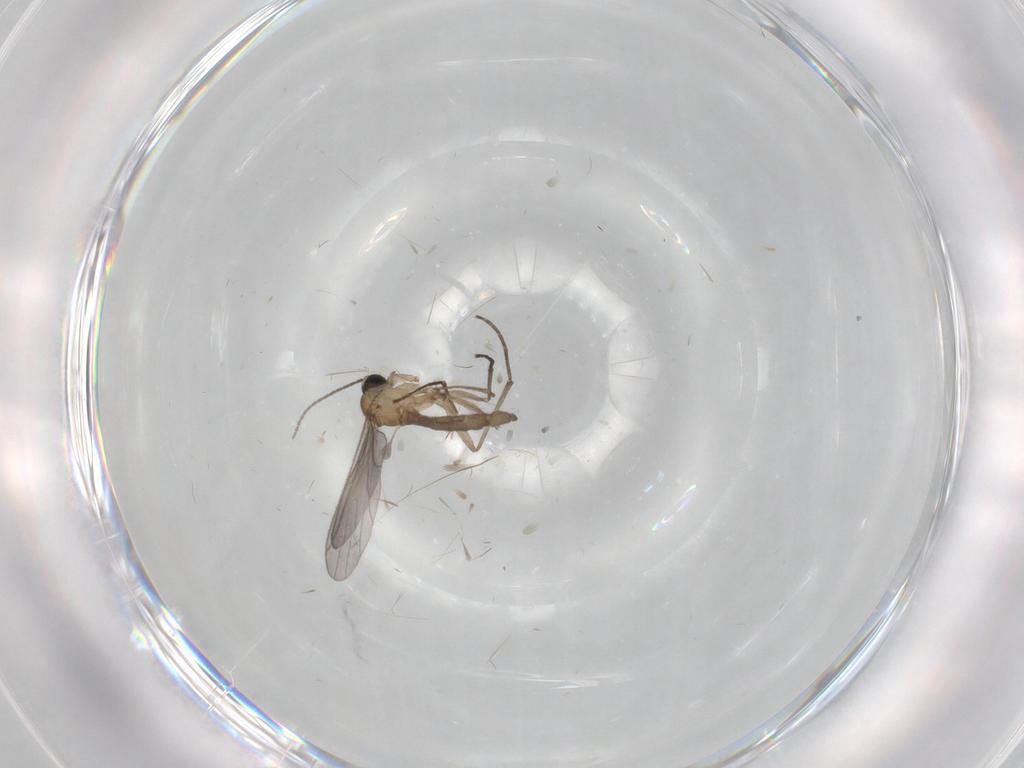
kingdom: Animalia
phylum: Arthropoda
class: Insecta
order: Diptera
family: Sciaridae
